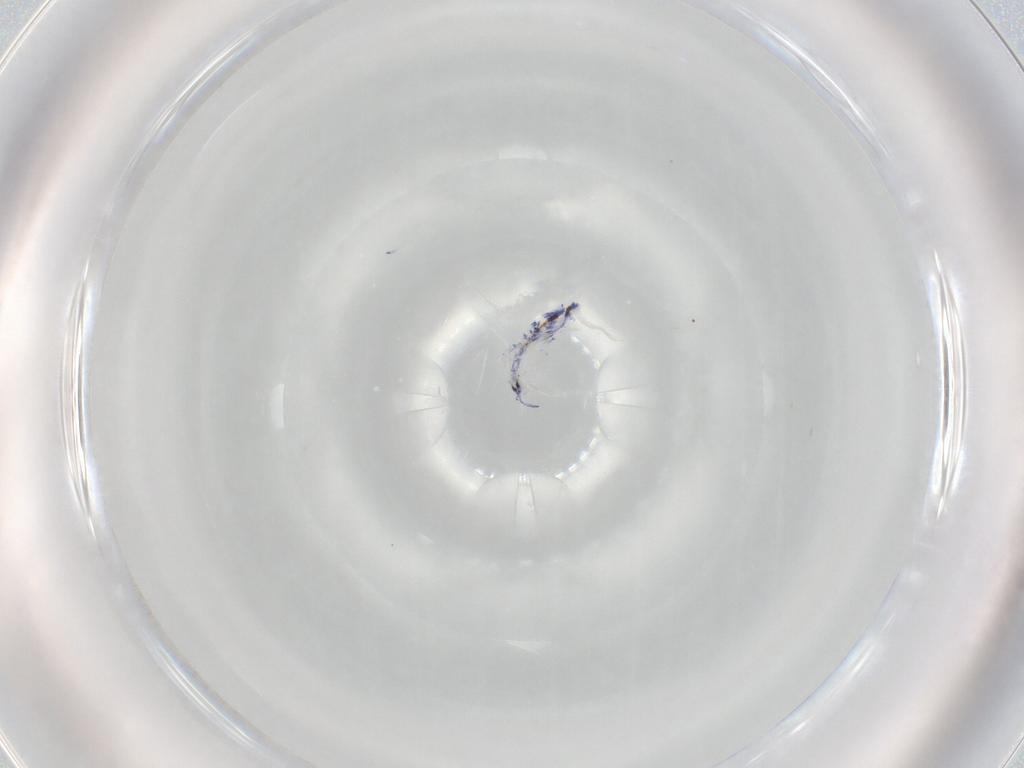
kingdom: Animalia
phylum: Arthropoda
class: Collembola
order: Entomobryomorpha
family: Entomobryidae
